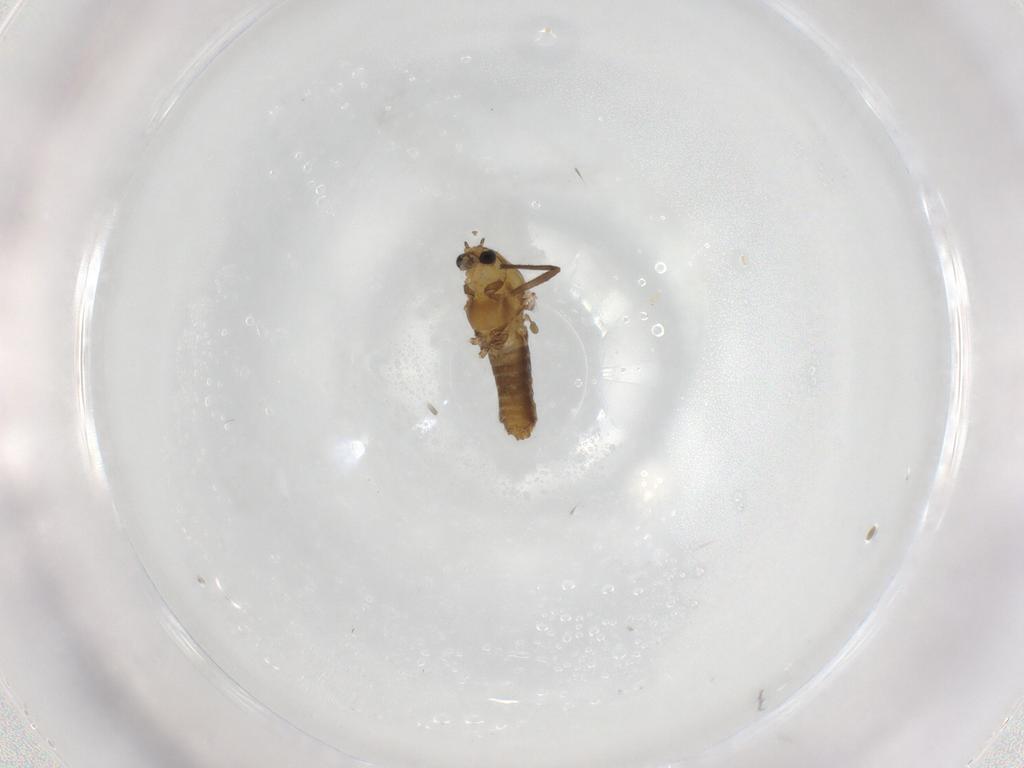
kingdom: Animalia
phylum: Arthropoda
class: Insecta
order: Diptera
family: Chironomidae
